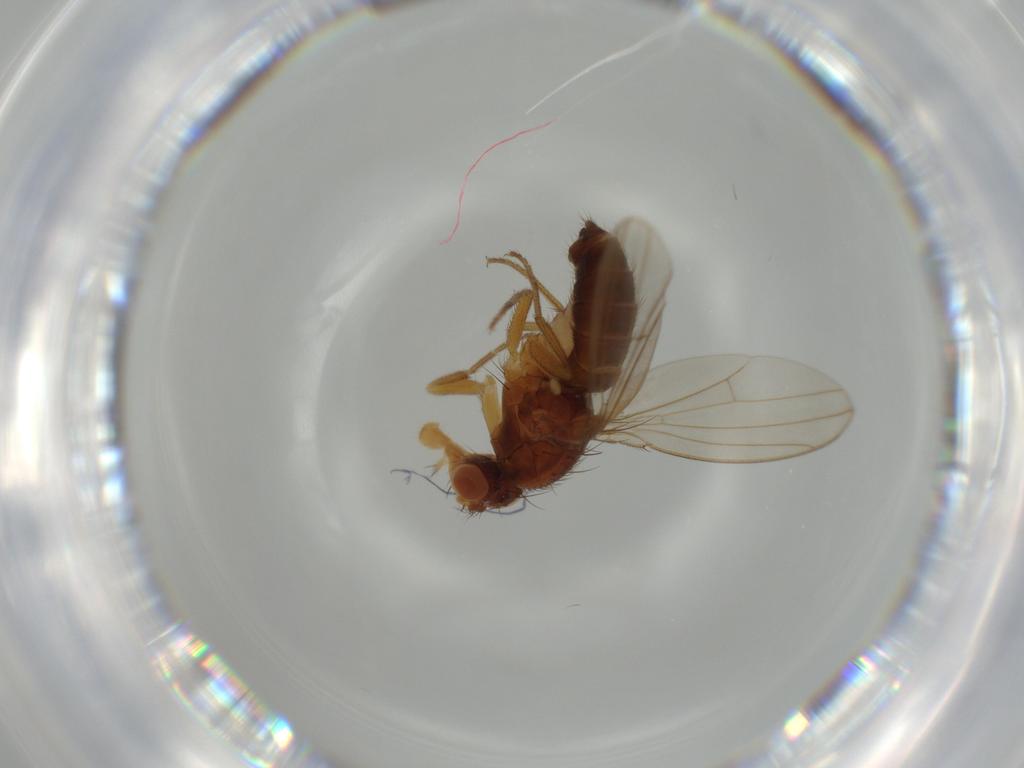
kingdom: Animalia
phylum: Arthropoda
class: Insecta
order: Diptera
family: Drosophilidae
